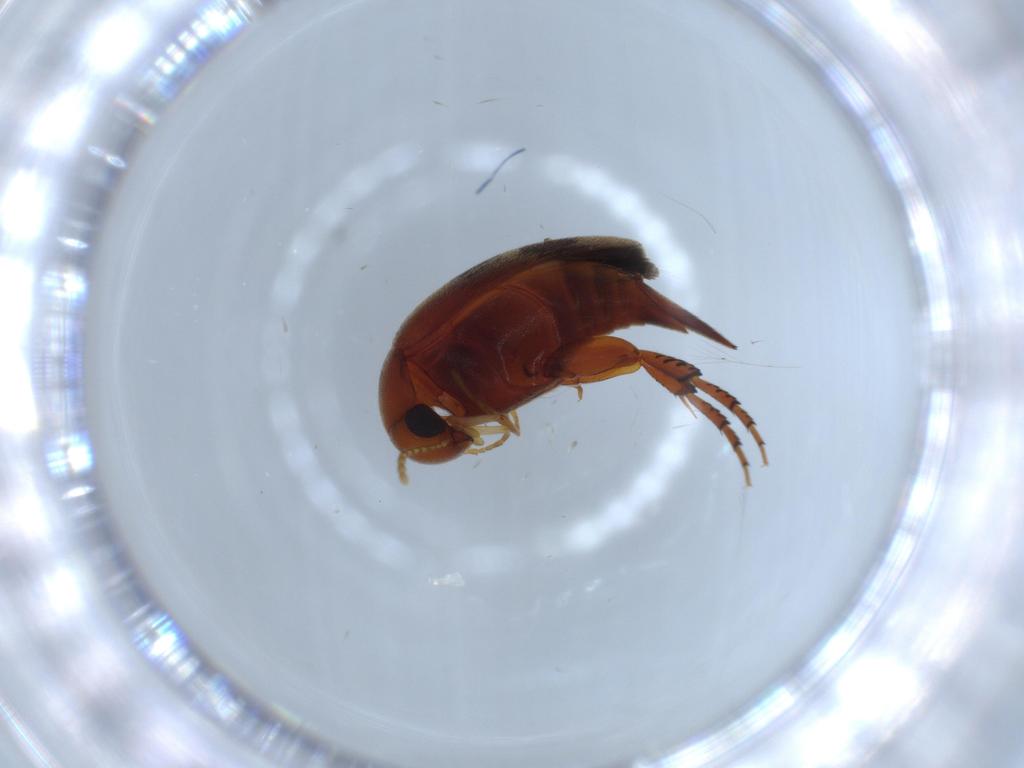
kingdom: Animalia
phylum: Arthropoda
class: Insecta
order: Coleoptera
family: Chrysomelidae
